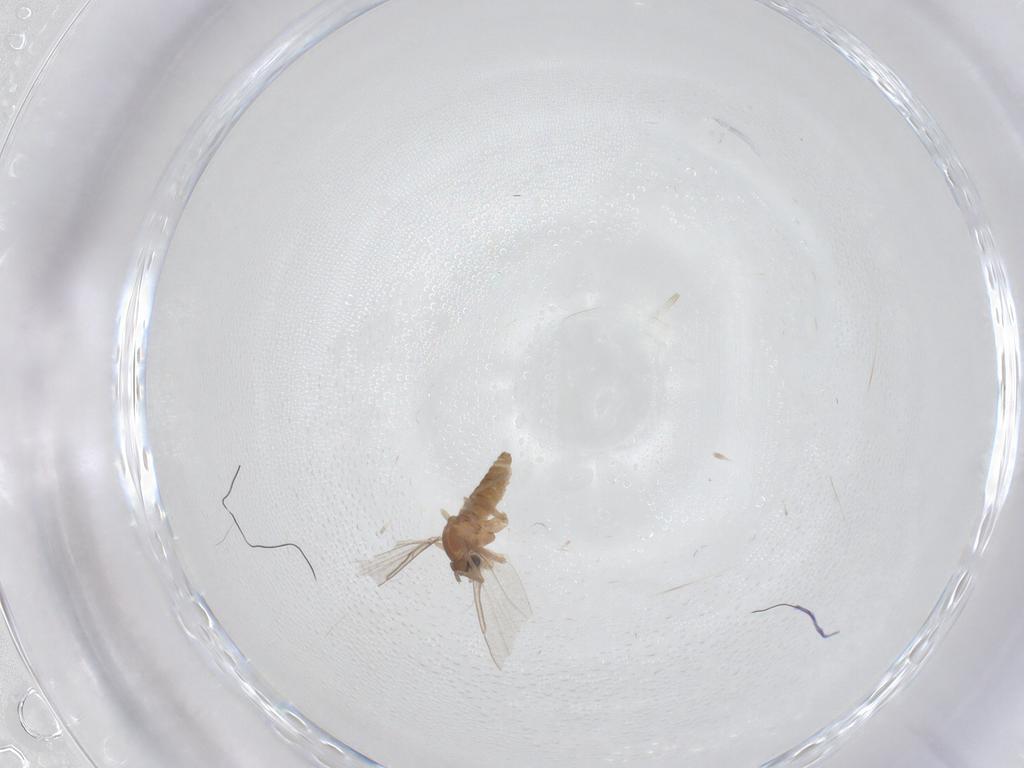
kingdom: Animalia
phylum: Arthropoda
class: Insecta
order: Diptera
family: Cecidomyiidae
